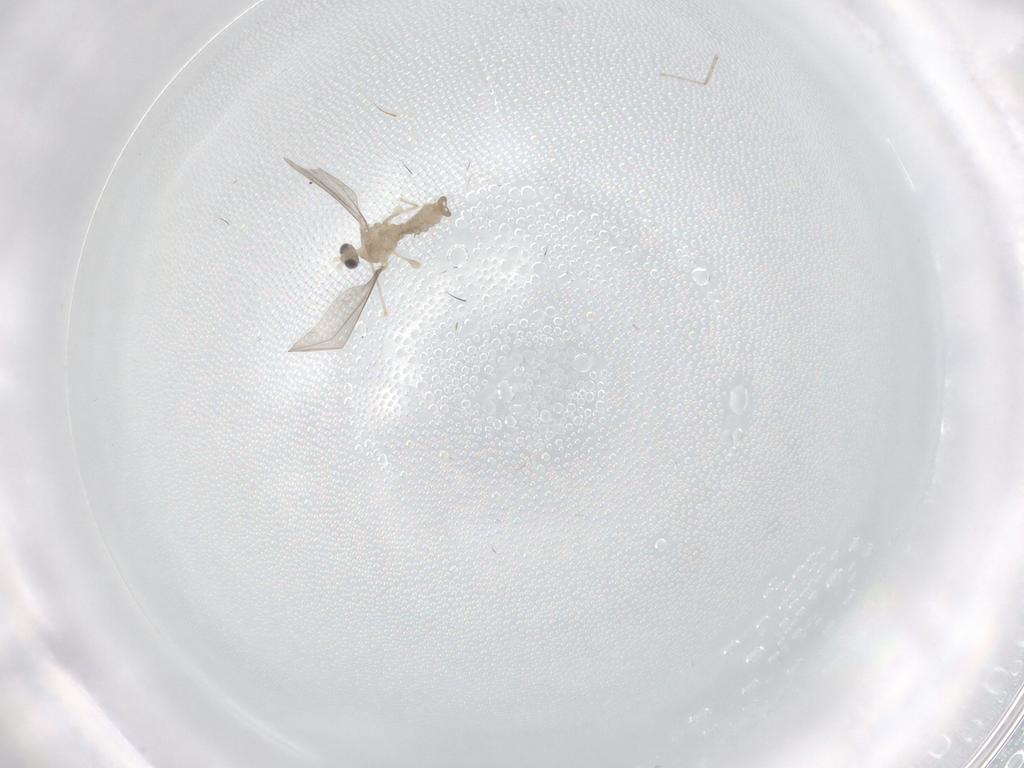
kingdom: Animalia
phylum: Arthropoda
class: Insecta
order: Diptera
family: Cecidomyiidae
